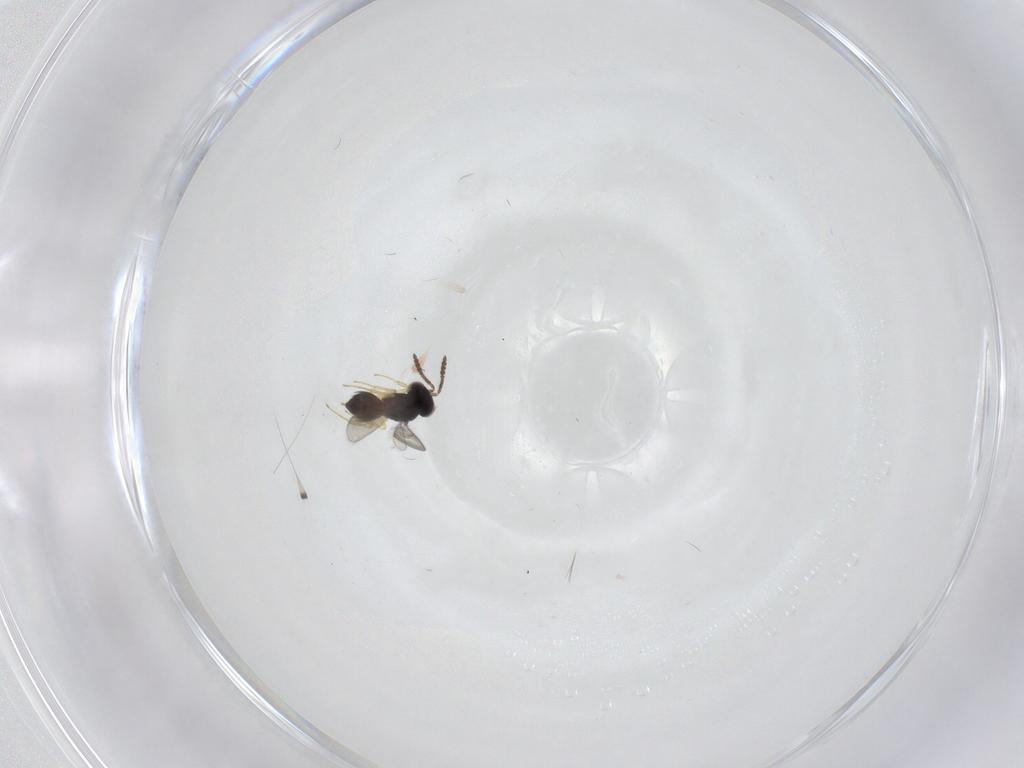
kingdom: Animalia
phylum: Arthropoda
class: Insecta
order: Hymenoptera
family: Scelionidae
